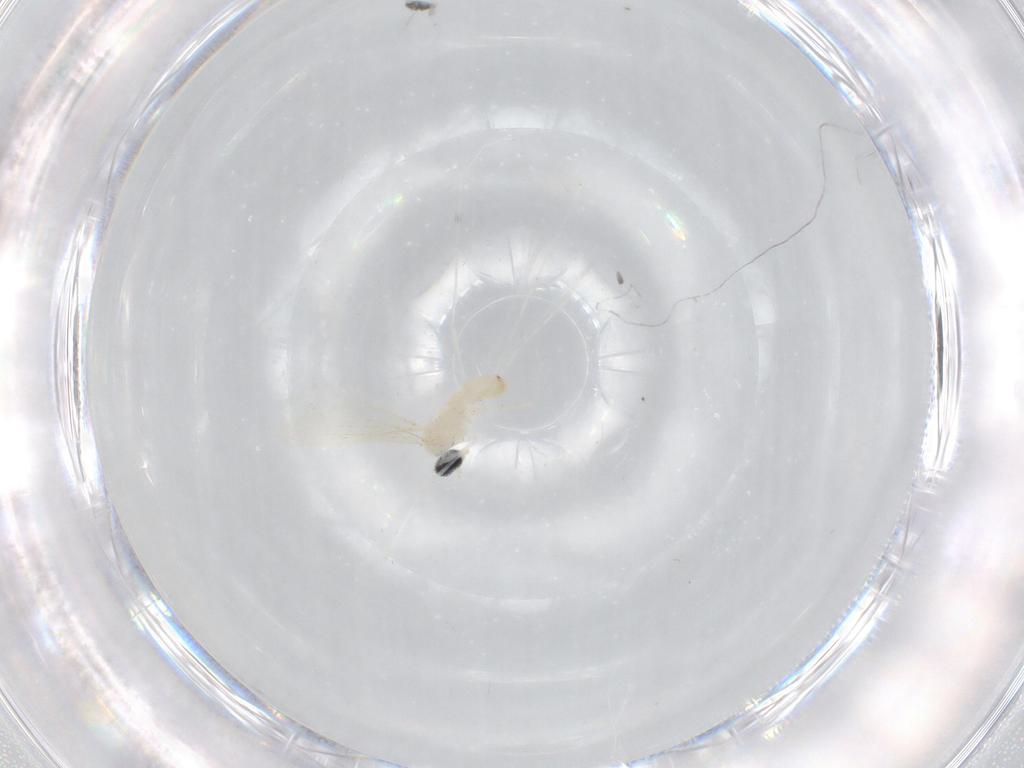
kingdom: Animalia
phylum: Arthropoda
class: Insecta
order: Diptera
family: Cecidomyiidae
